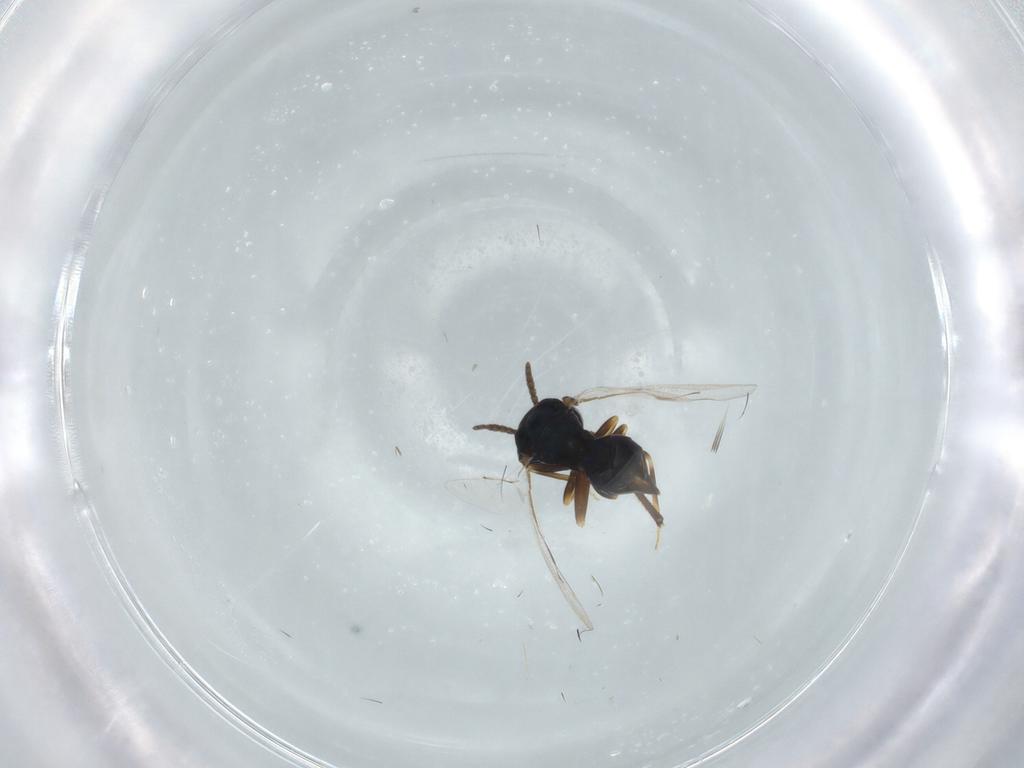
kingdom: Animalia
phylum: Arthropoda
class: Insecta
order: Hymenoptera
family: Pteromalidae
